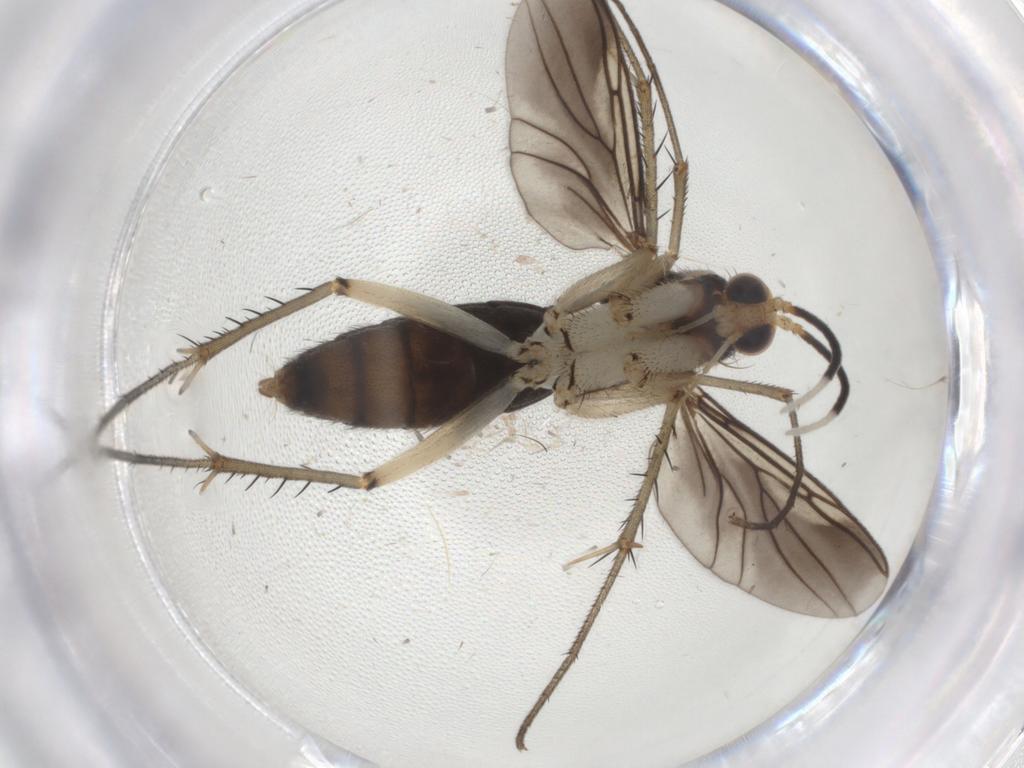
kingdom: Animalia
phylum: Arthropoda
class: Insecta
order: Diptera
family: Mycetophilidae
